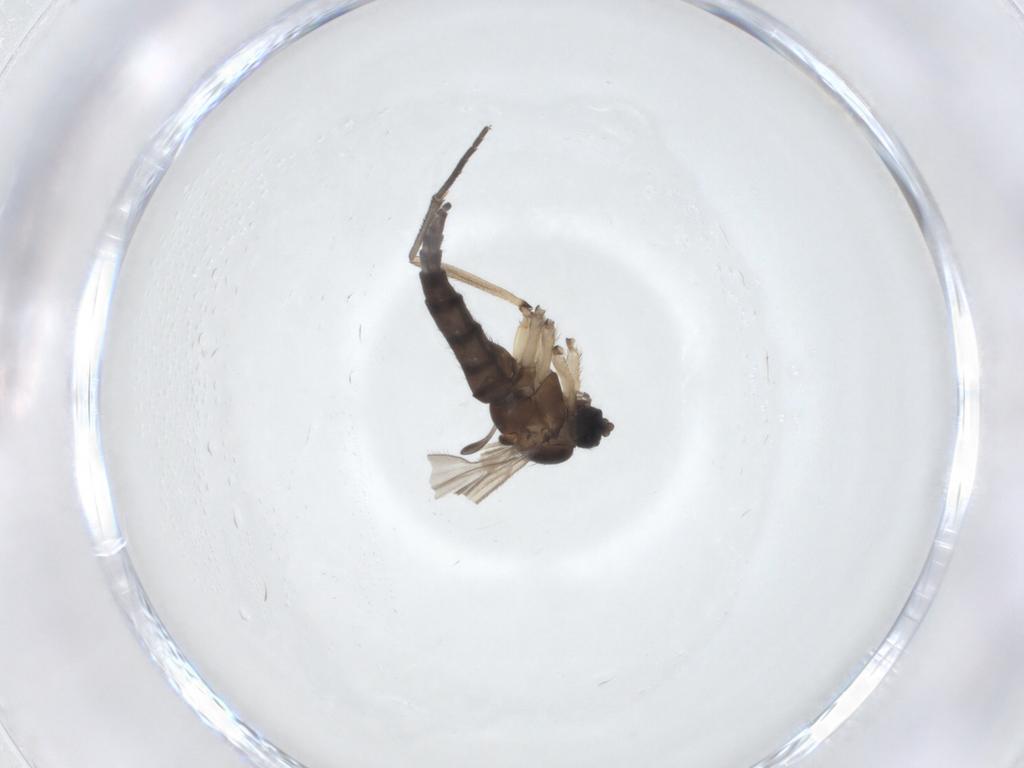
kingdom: Animalia
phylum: Arthropoda
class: Insecta
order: Diptera
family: Sciaridae
